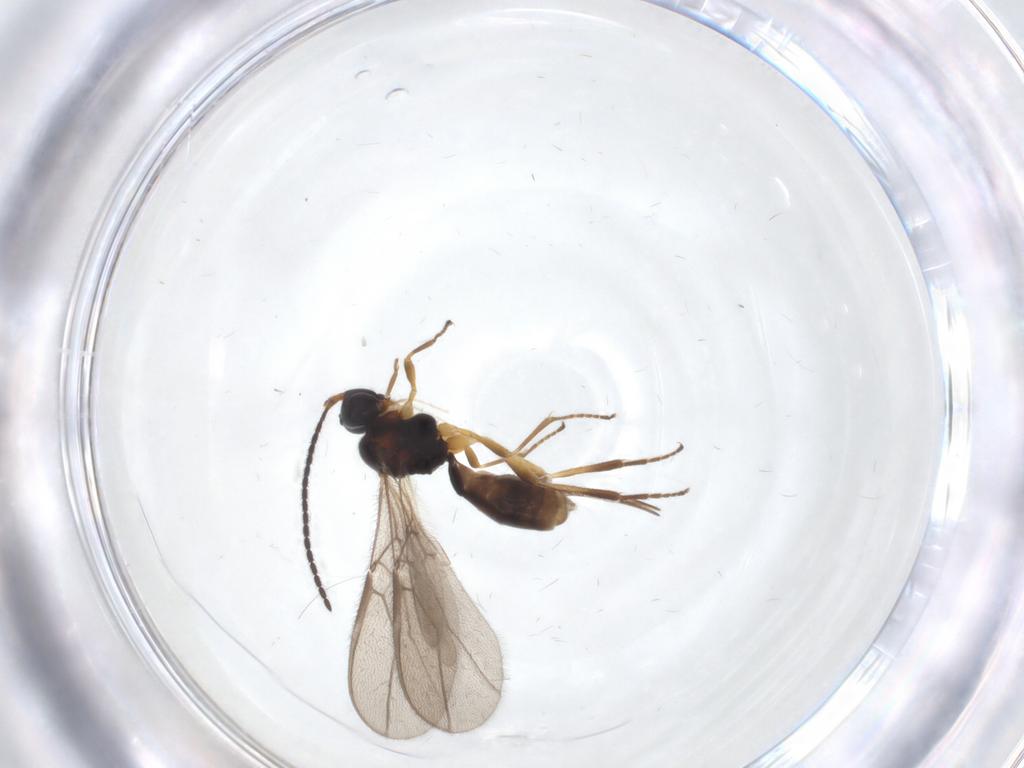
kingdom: Animalia
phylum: Arthropoda
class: Insecta
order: Hymenoptera
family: Braconidae
